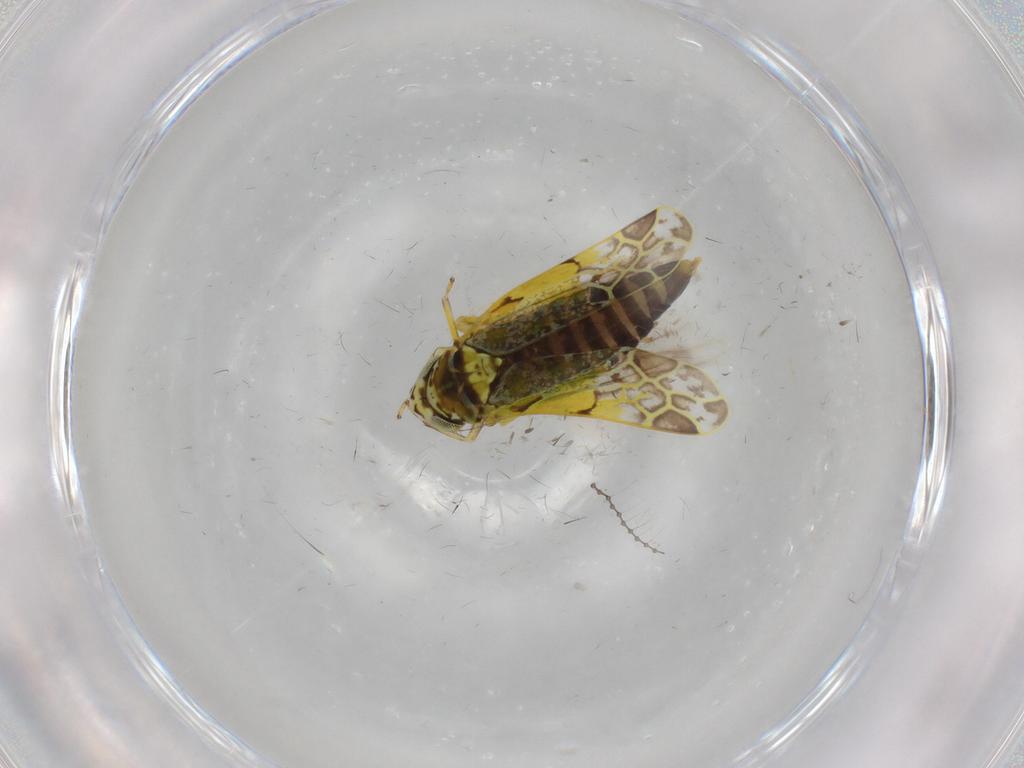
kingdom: Animalia
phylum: Arthropoda
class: Insecta
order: Hemiptera
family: Cicadellidae
